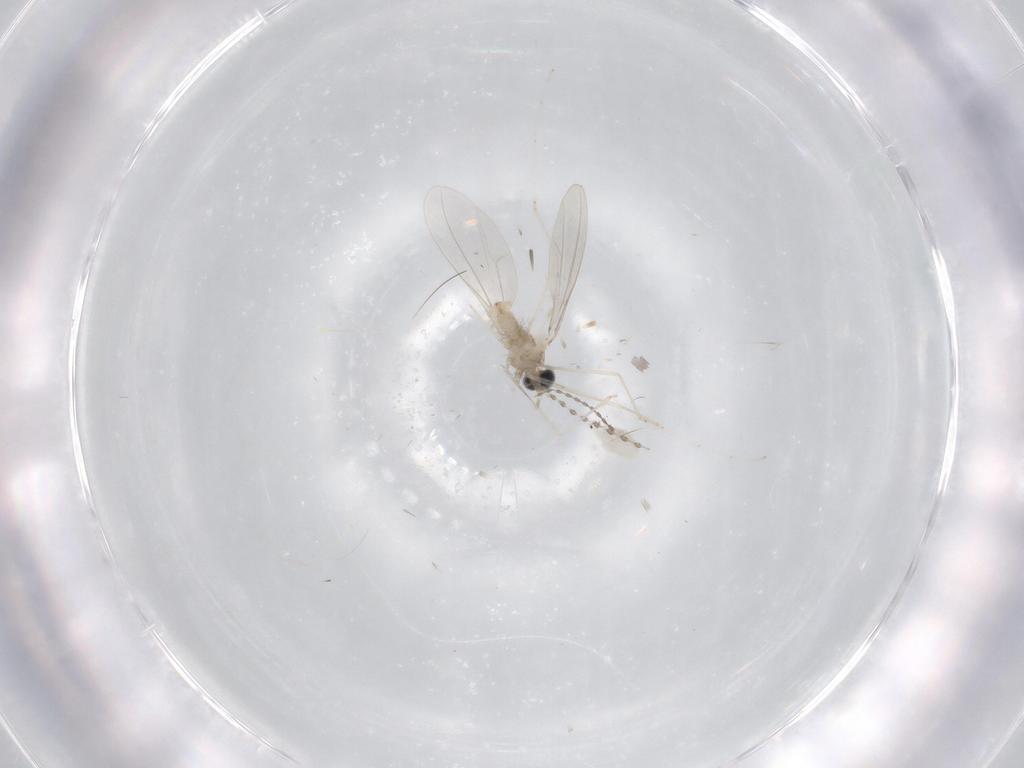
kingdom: Animalia
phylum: Arthropoda
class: Insecta
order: Diptera
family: Cecidomyiidae
